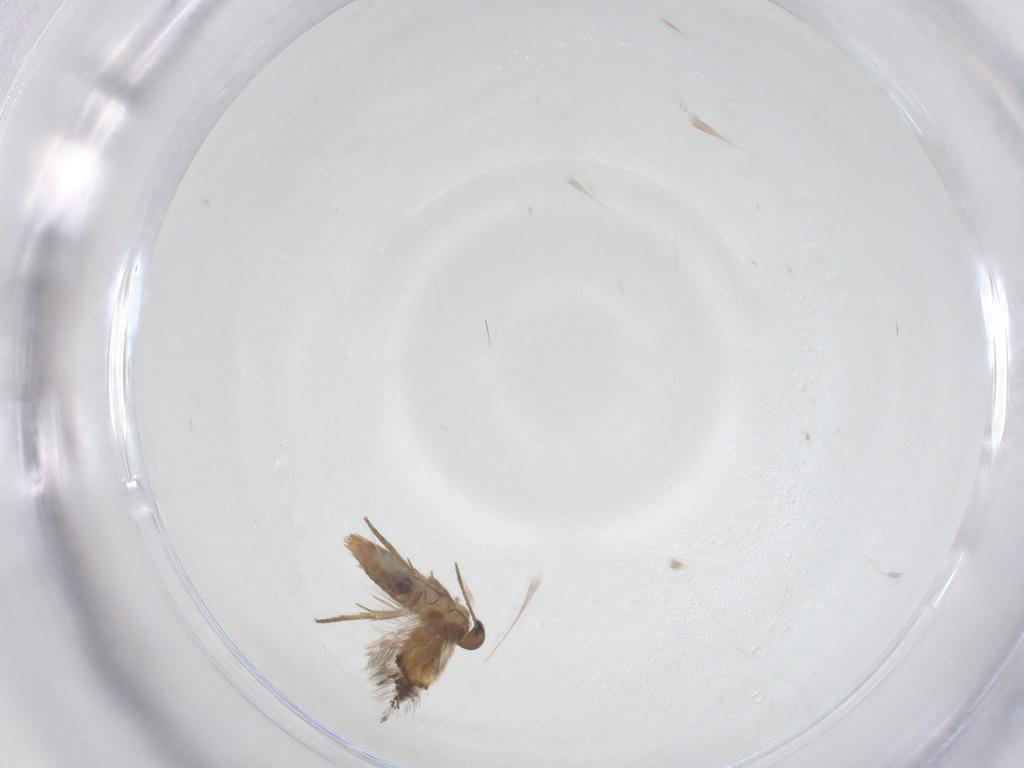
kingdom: Animalia
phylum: Arthropoda
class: Insecta
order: Lepidoptera
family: Heliozelidae
